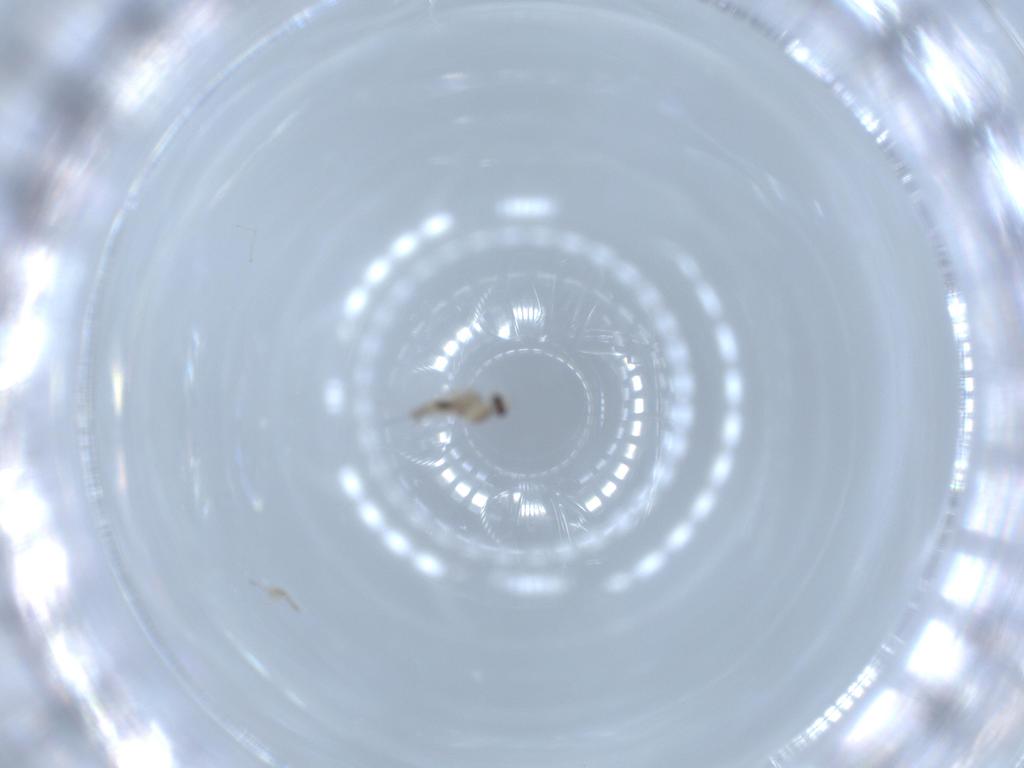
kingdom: Animalia
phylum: Arthropoda
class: Insecta
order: Diptera
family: Cecidomyiidae
